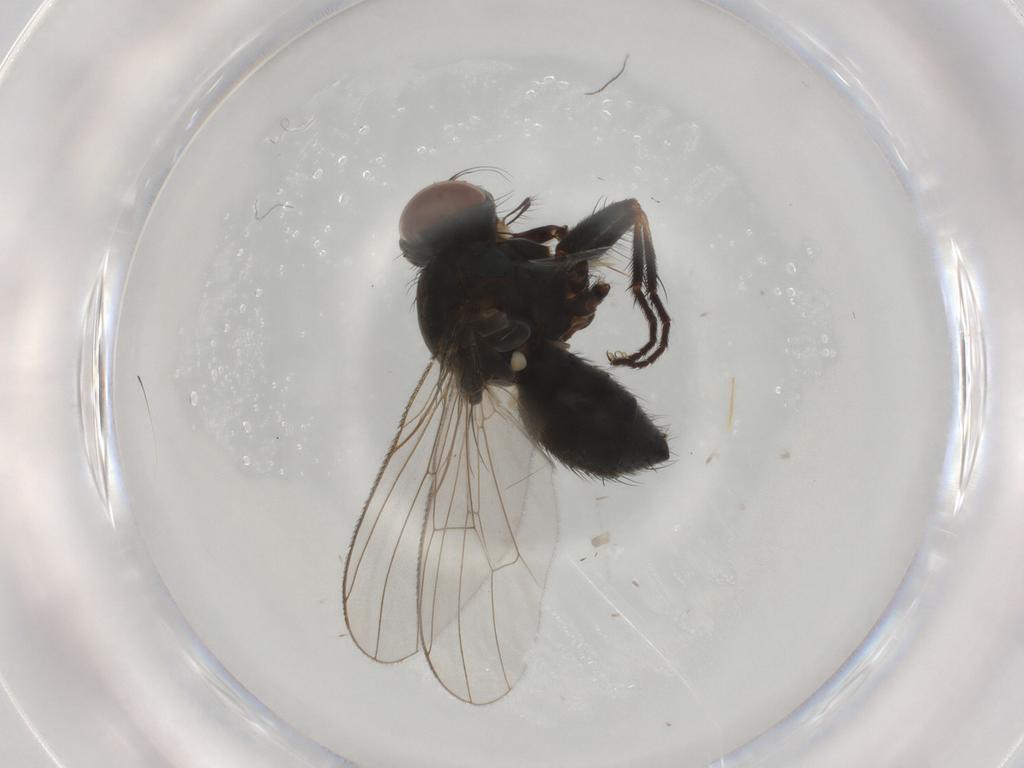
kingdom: Animalia
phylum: Arthropoda
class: Insecta
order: Diptera
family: Muscidae
